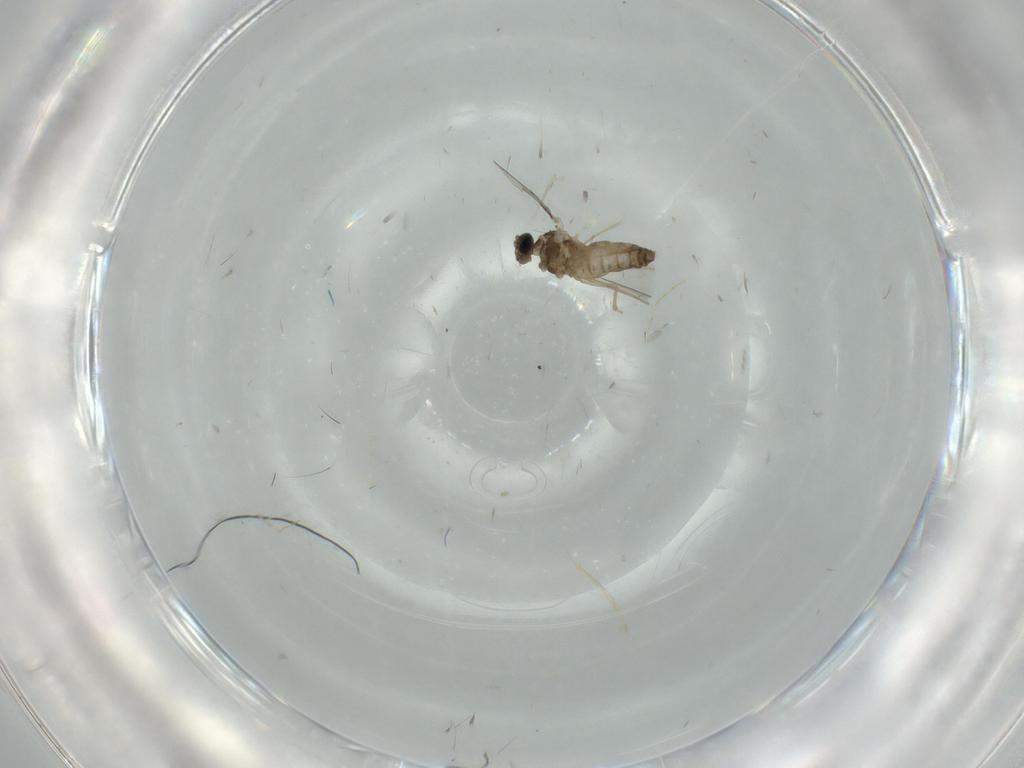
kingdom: Animalia
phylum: Arthropoda
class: Insecta
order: Diptera
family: Cecidomyiidae
